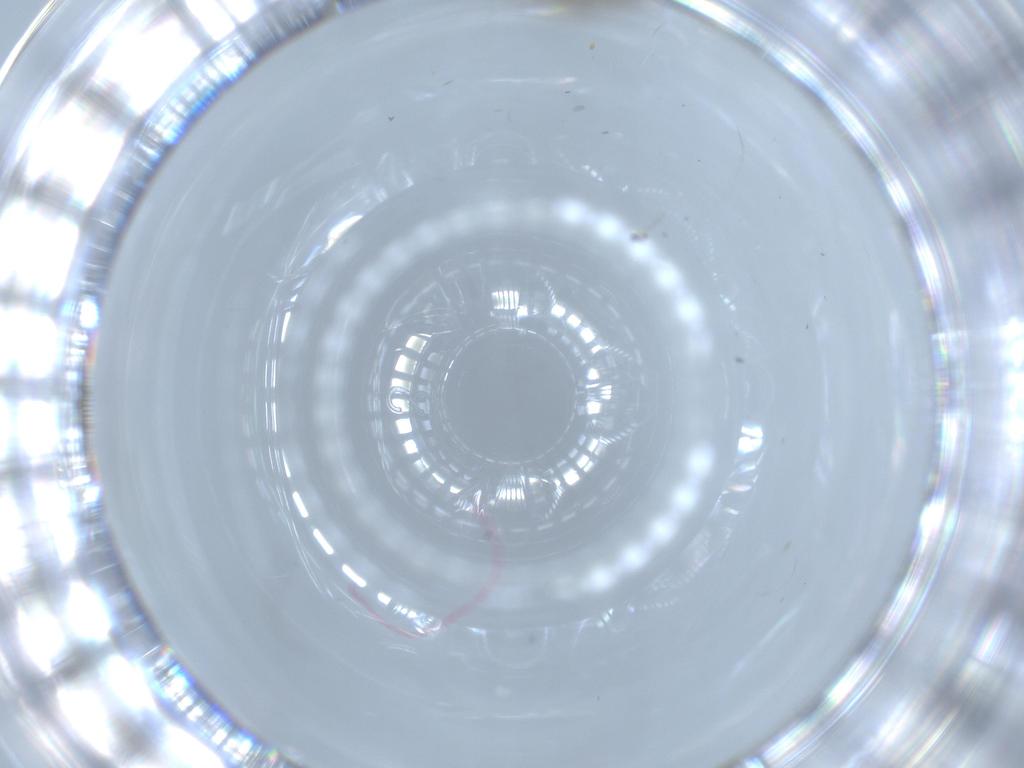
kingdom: Animalia
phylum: Arthropoda
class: Insecta
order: Diptera
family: Chironomidae
